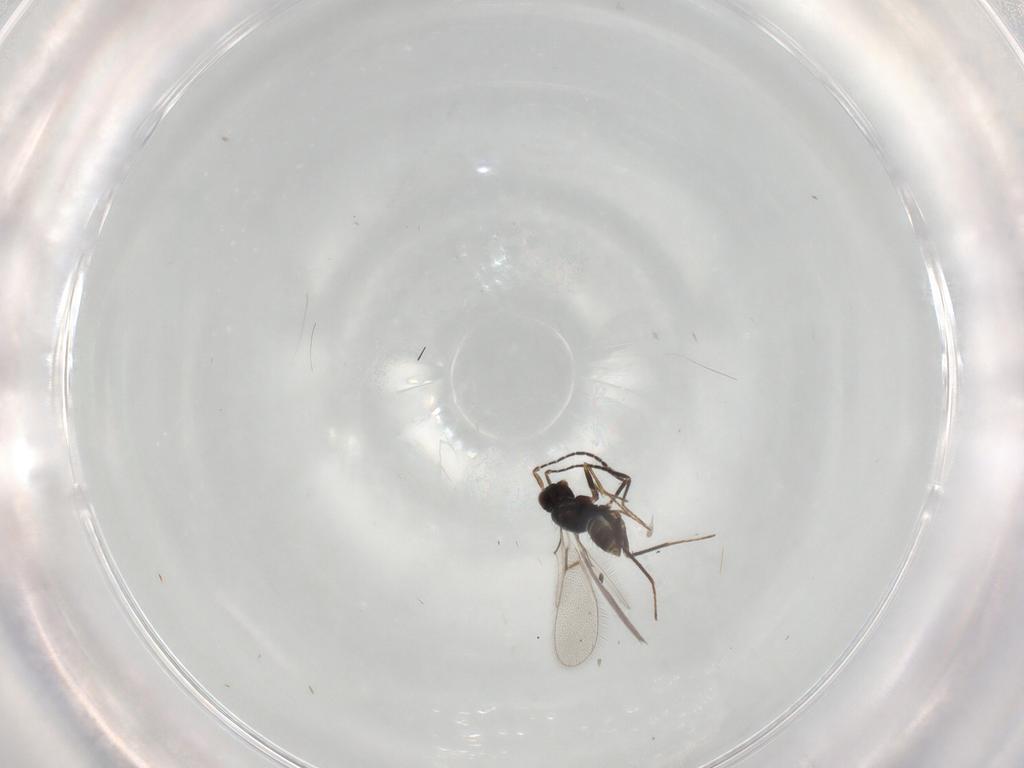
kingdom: Animalia
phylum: Arthropoda
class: Insecta
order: Hymenoptera
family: Mymaridae
